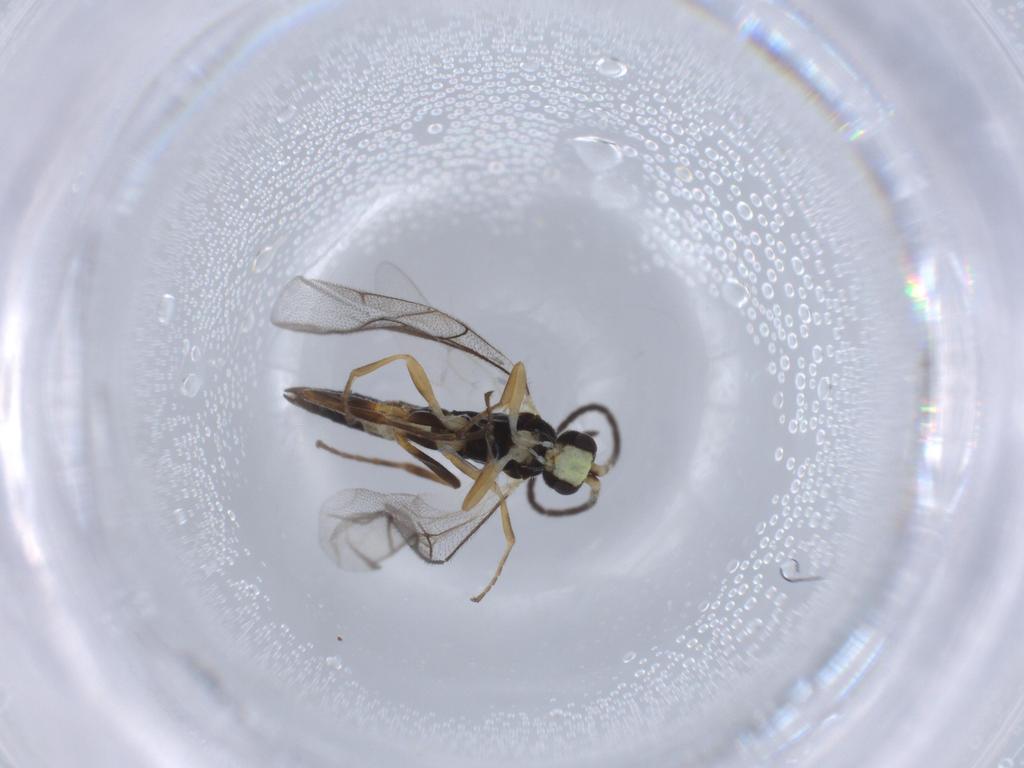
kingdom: Animalia
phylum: Arthropoda
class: Insecta
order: Hymenoptera
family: Ichneumonidae
